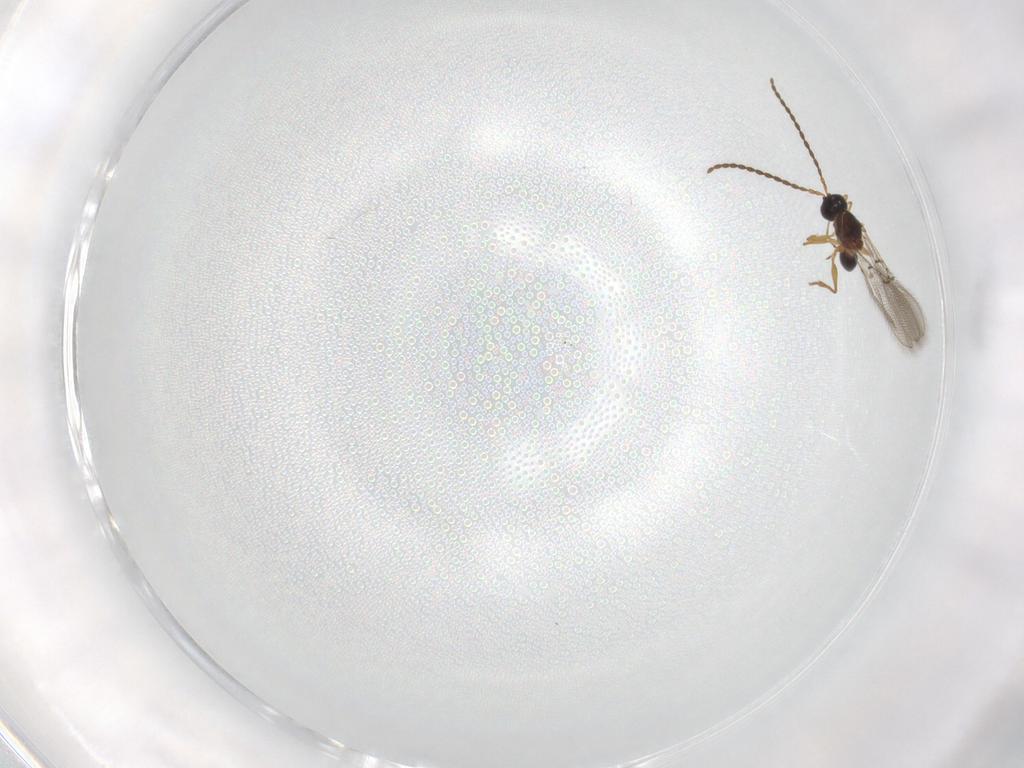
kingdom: Animalia
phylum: Arthropoda
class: Insecta
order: Hymenoptera
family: Figitidae
